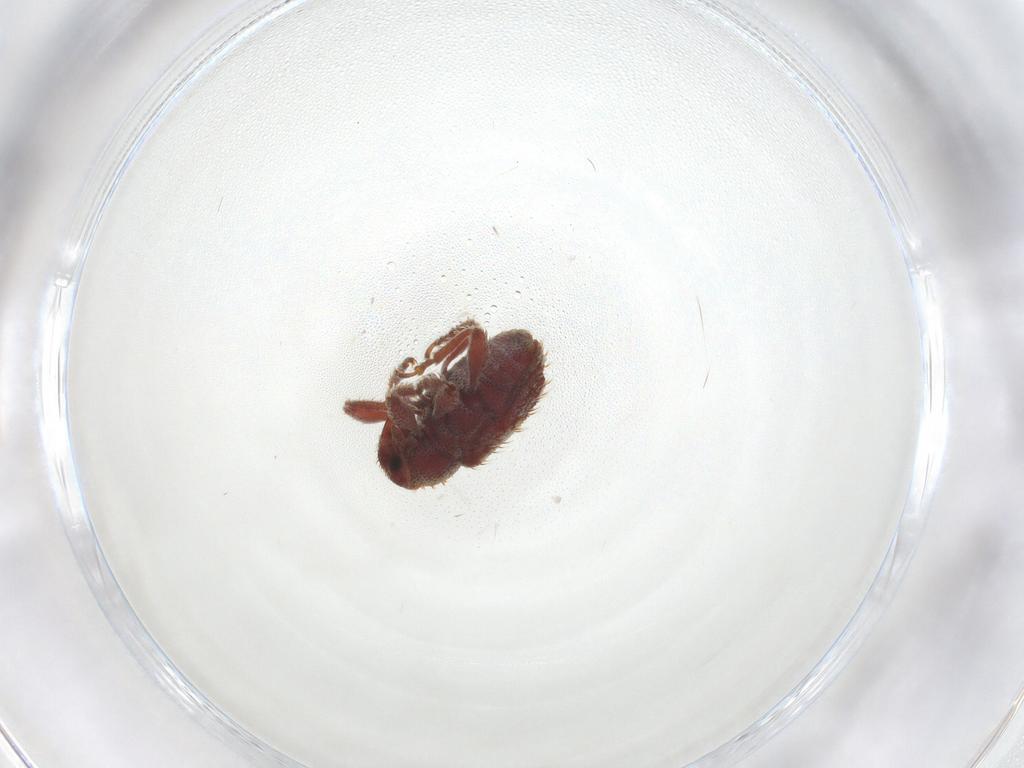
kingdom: Animalia
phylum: Arthropoda
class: Insecta
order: Coleoptera
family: Curculionidae
